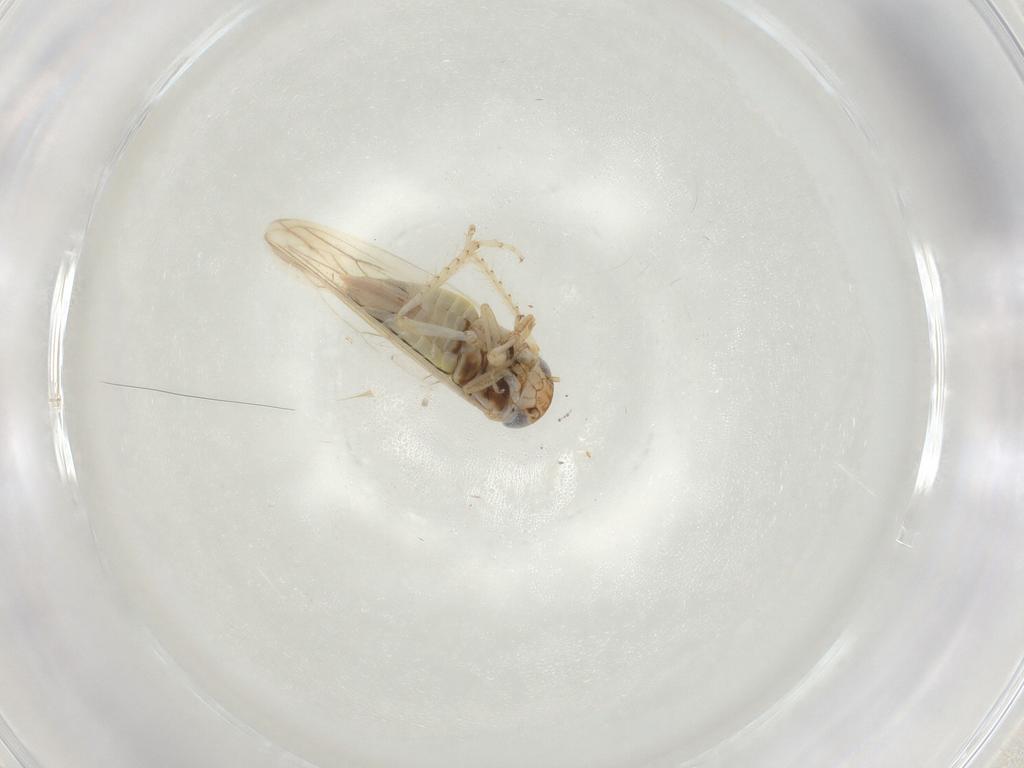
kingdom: Animalia
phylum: Arthropoda
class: Insecta
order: Hemiptera
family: Cicadellidae
